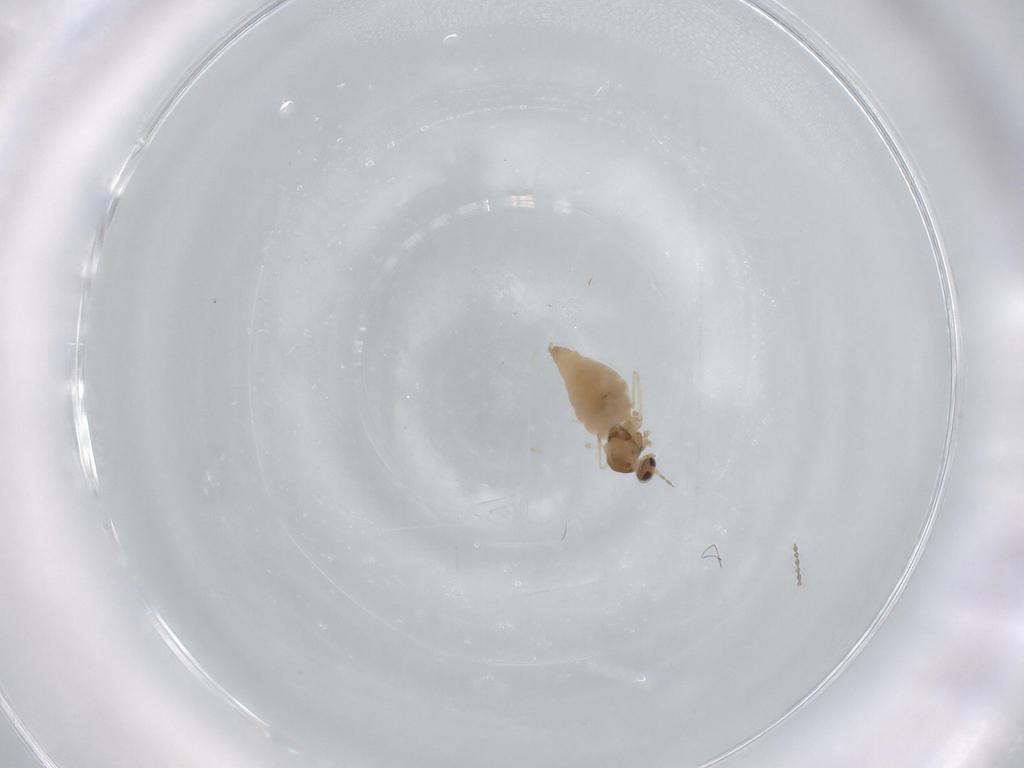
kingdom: Animalia
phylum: Arthropoda
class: Insecta
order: Diptera
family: Cecidomyiidae
